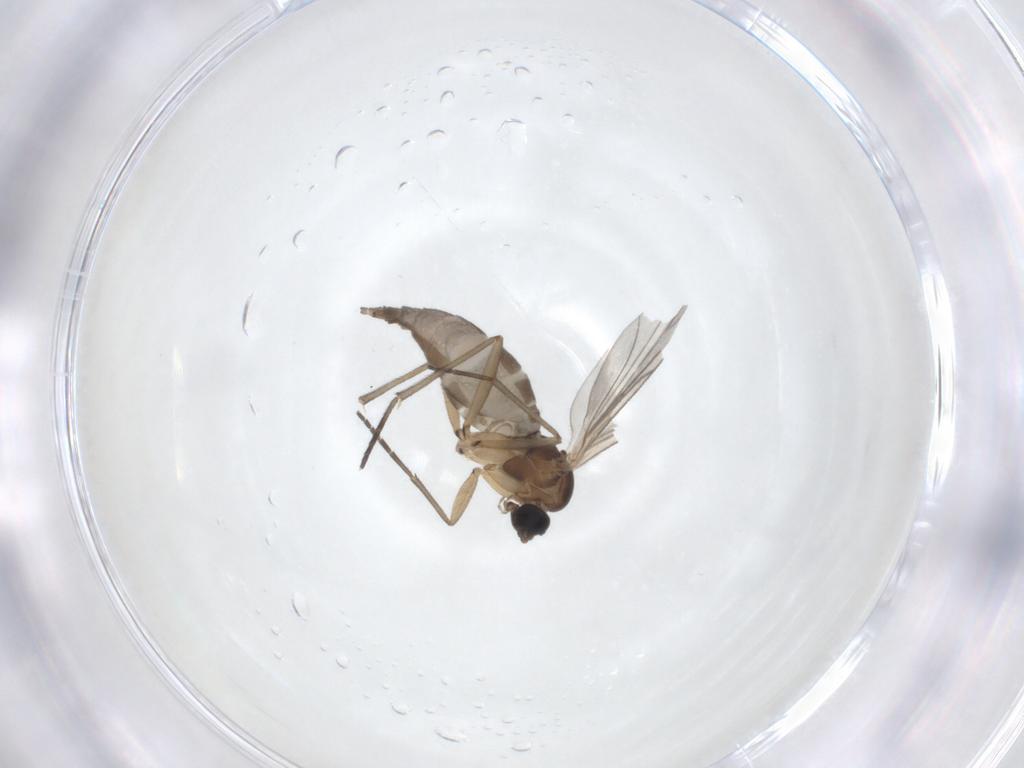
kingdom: Animalia
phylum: Arthropoda
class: Insecta
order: Diptera
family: Sciaridae
